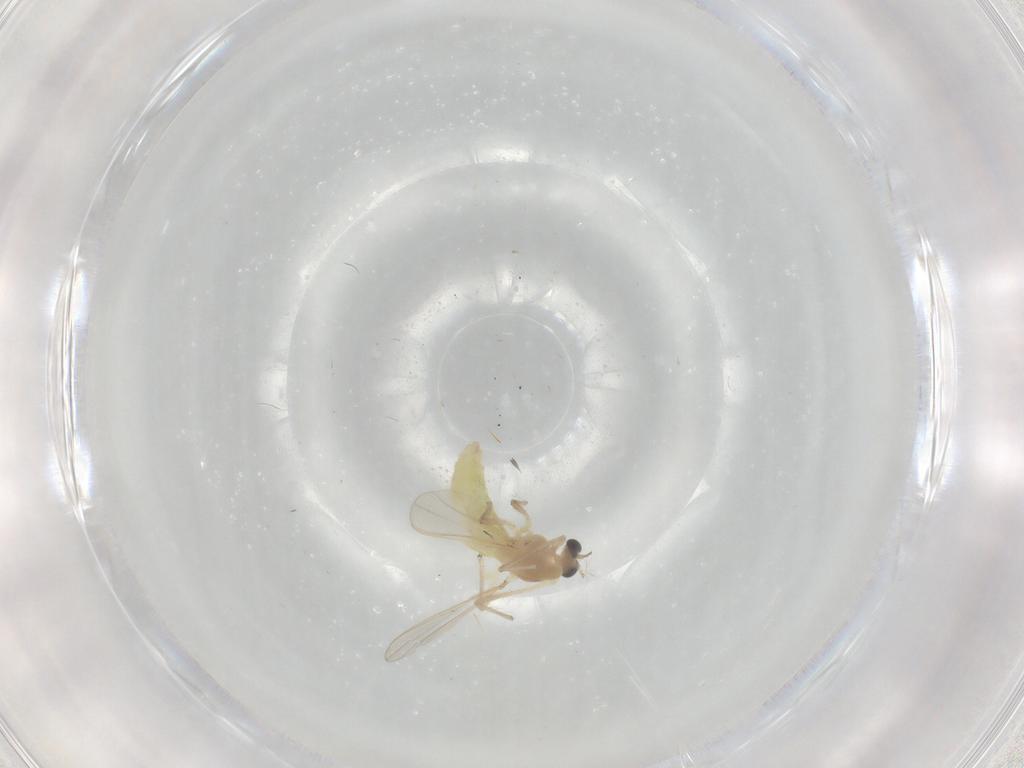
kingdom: Animalia
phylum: Arthropoda
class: Insecta
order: Diptera
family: Chironomidae
